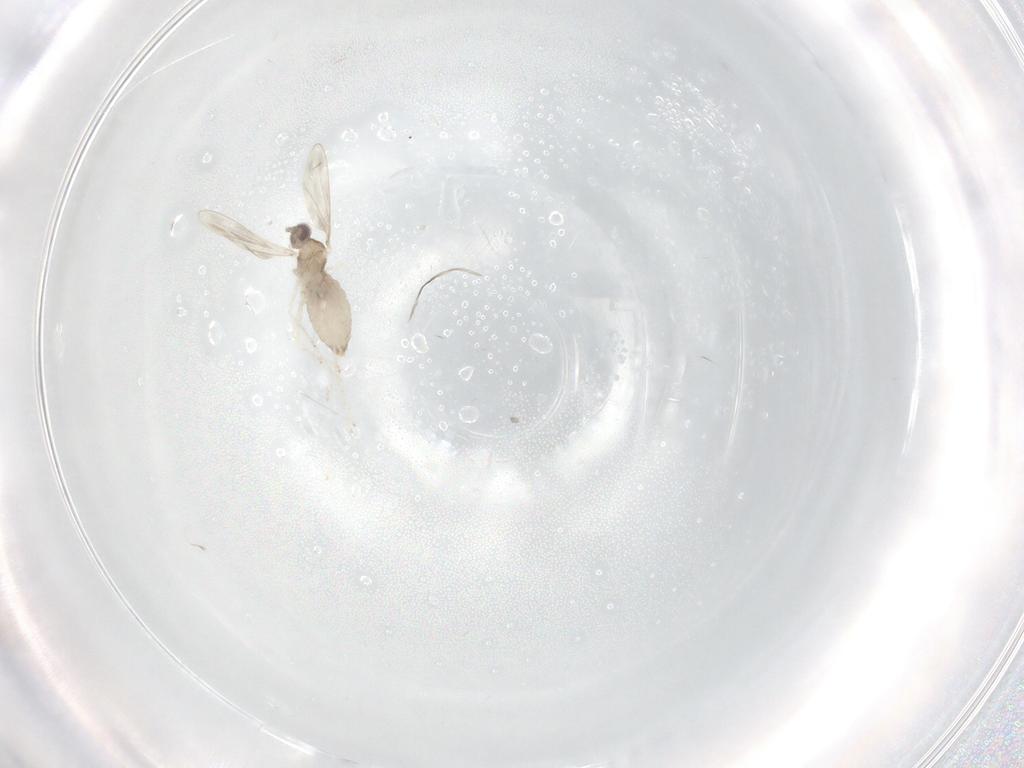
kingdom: Animalia
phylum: Arthropoda
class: Insecta
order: Diptera
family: Cecidomyiidae
